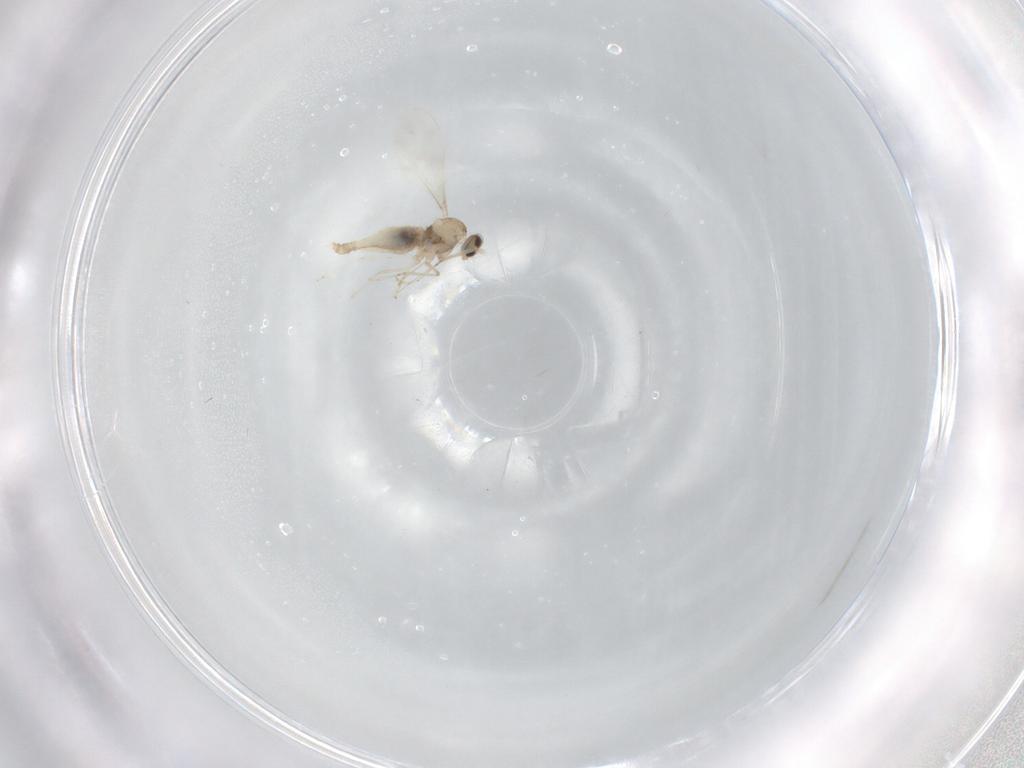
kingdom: Animalia
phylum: Arthropoda
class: Insecta
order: Diptera
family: Cecidomyiidae
